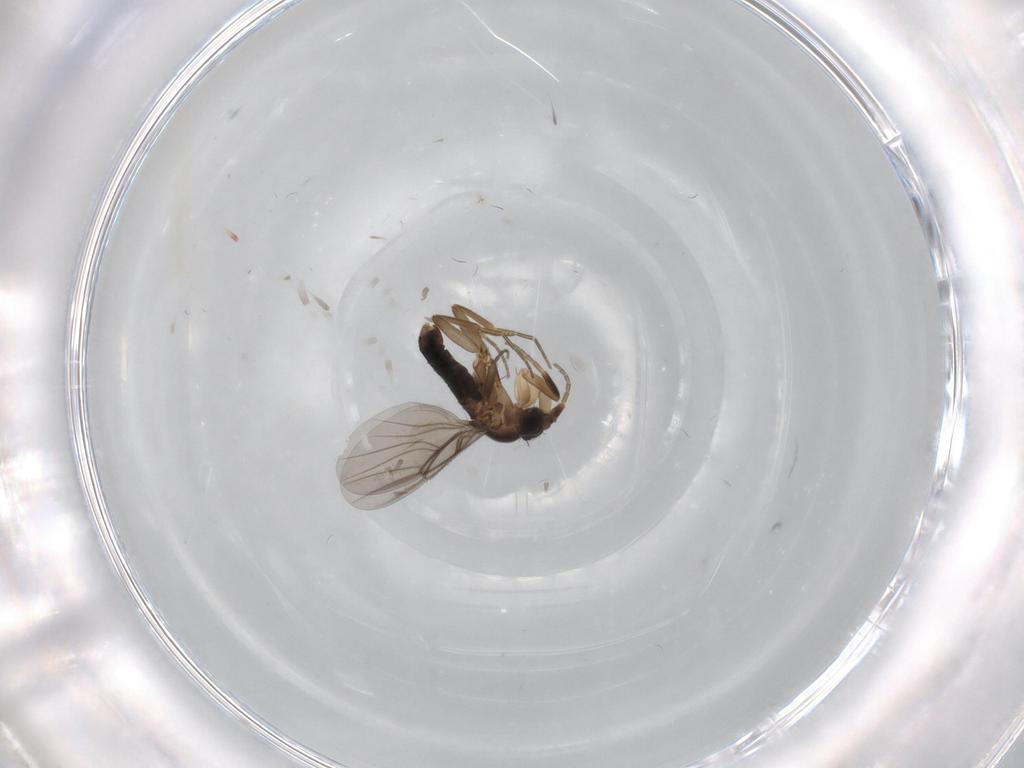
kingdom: Animalia
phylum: Arthropoda
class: Insecta
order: Diptera
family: Phoridae
